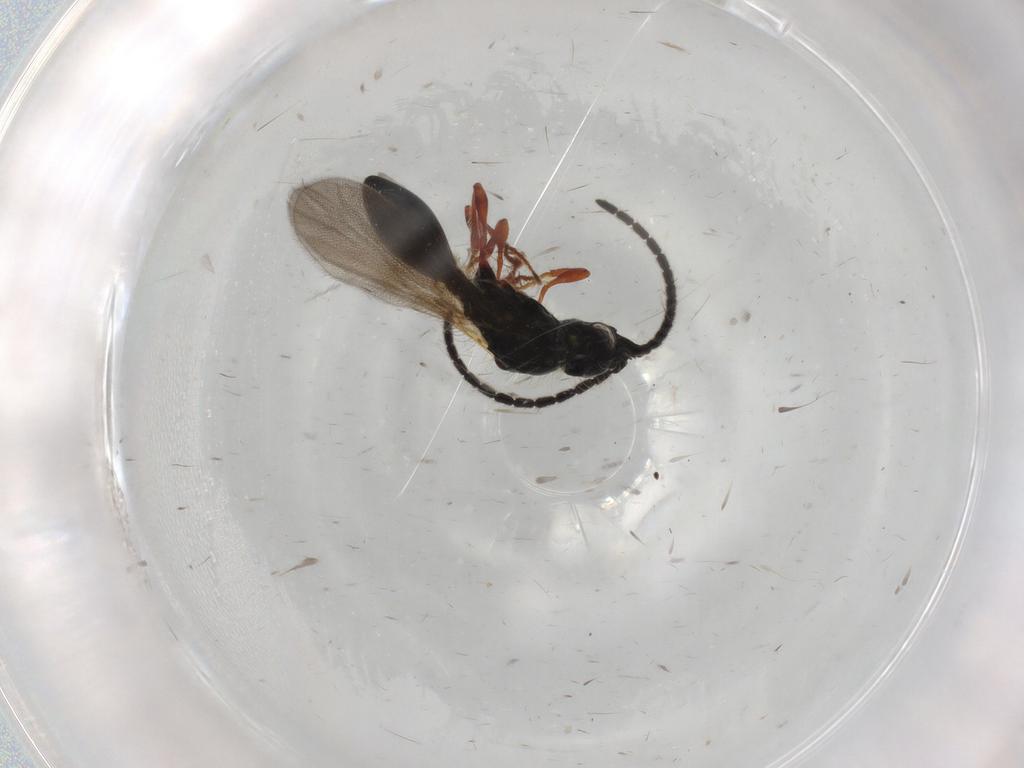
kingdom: Animalia
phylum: Arthropoda
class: Insecta
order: Hymenoptera
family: Diapriidae
